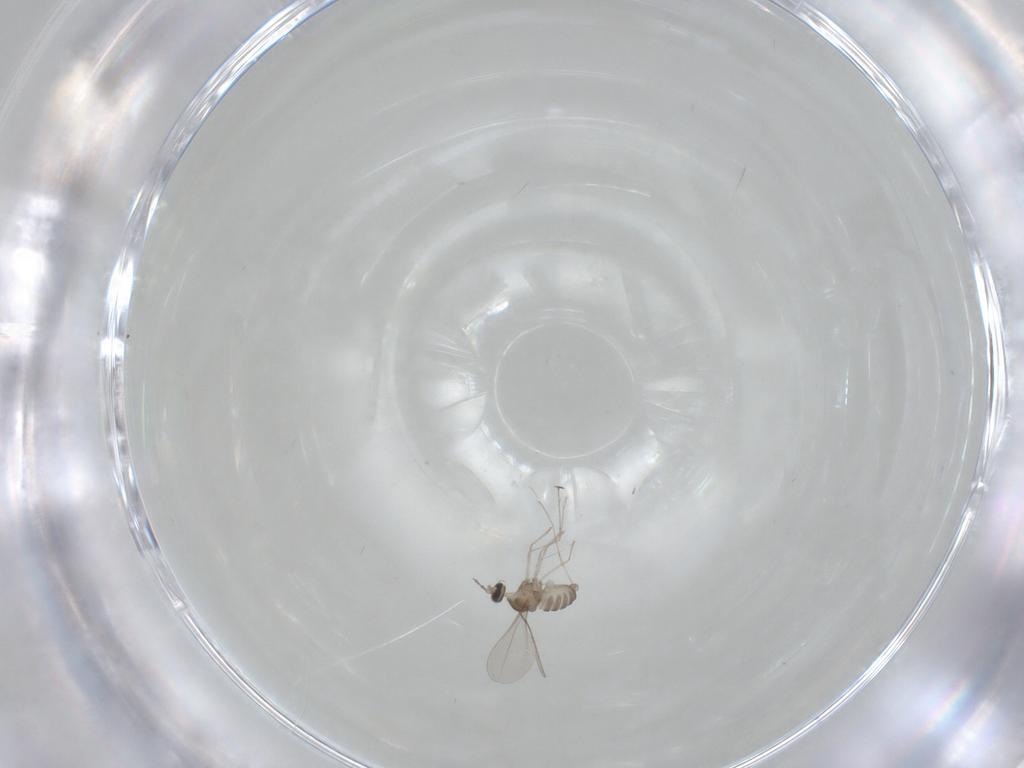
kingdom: Animalia
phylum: Arthropoda
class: Insecta
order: Diptera
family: Cecidomyiidae
